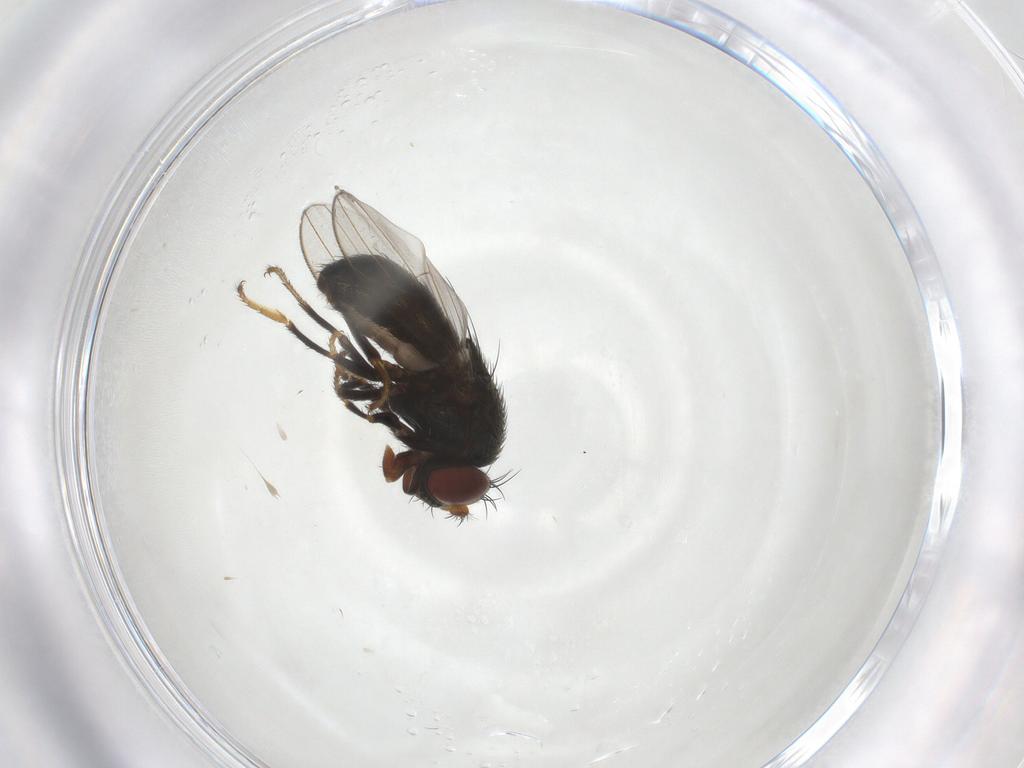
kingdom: Animalia
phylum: Arthropoda
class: Insecta
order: Diptera
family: Ephydridae
